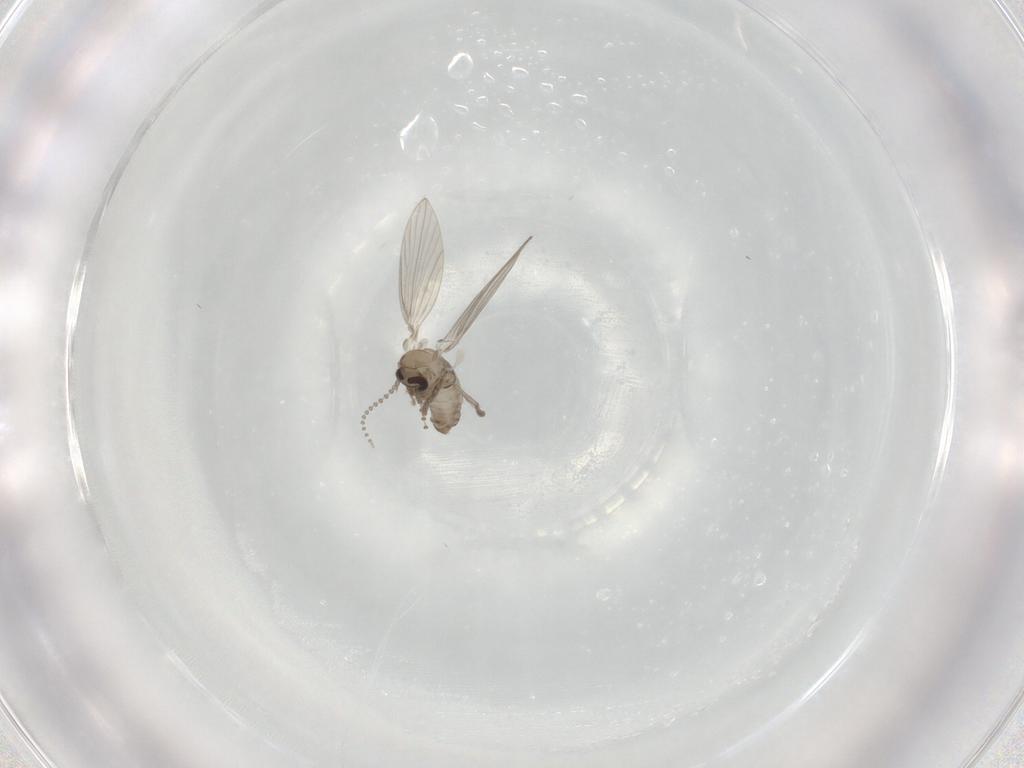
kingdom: Animalia
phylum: Arthropoda
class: Insecta
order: Diptera
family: Psychodidae
